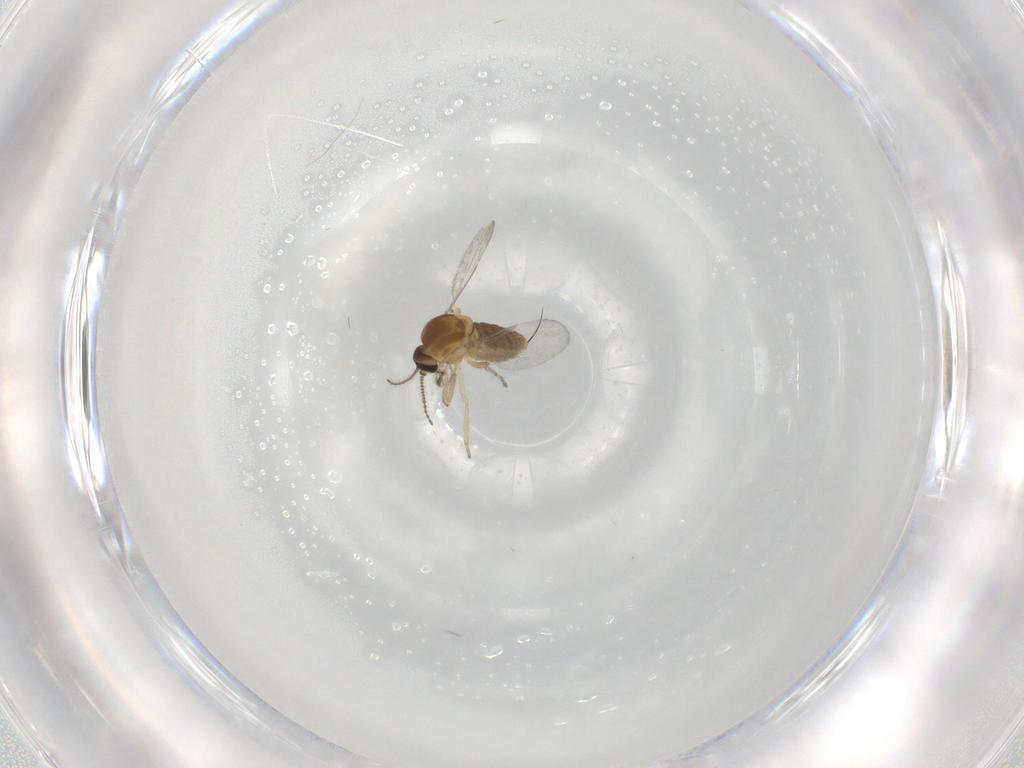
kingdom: Animalia
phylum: Arthropoda
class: Insecta
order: Diptera
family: Ceratopogonidae
